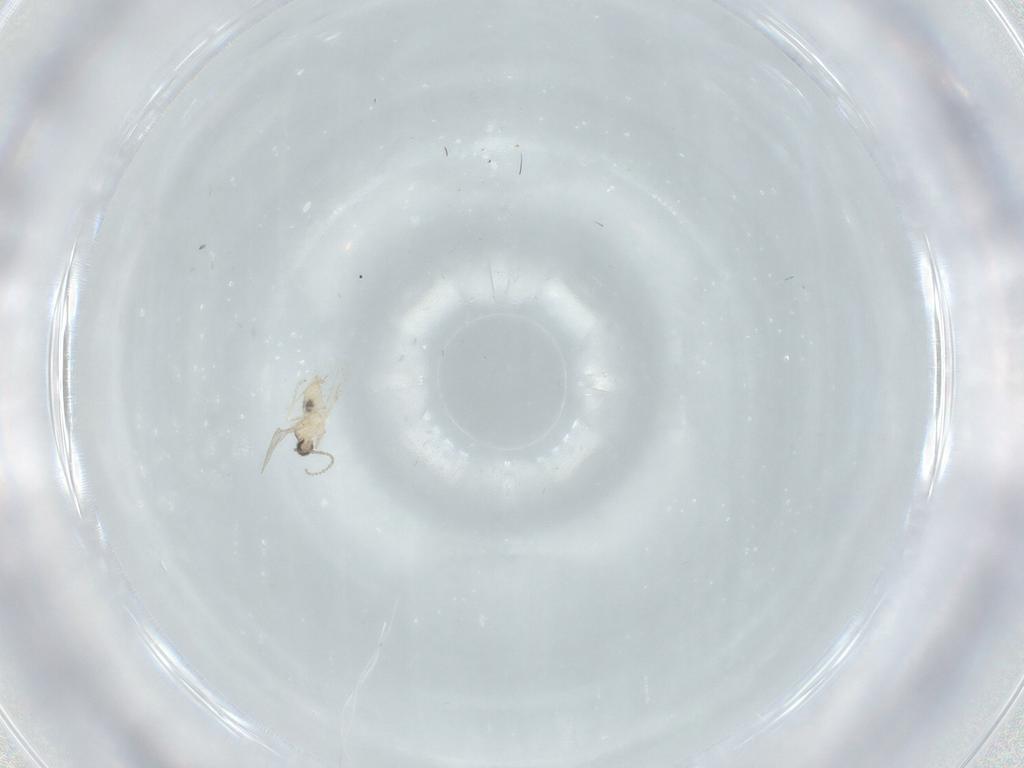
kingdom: Animalia
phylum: Arthropoda
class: Insecta
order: Diptera
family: Cecidomyiidae
